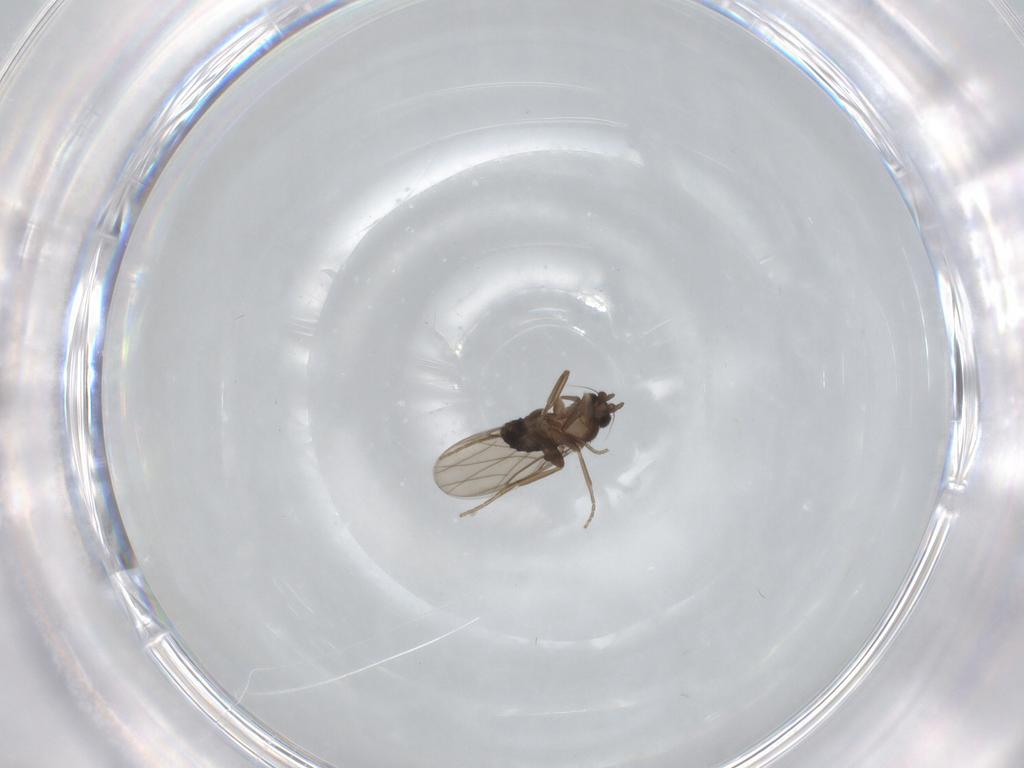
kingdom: Animalia
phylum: Arthropoda
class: Insecta
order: Diptera
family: Phoridae
